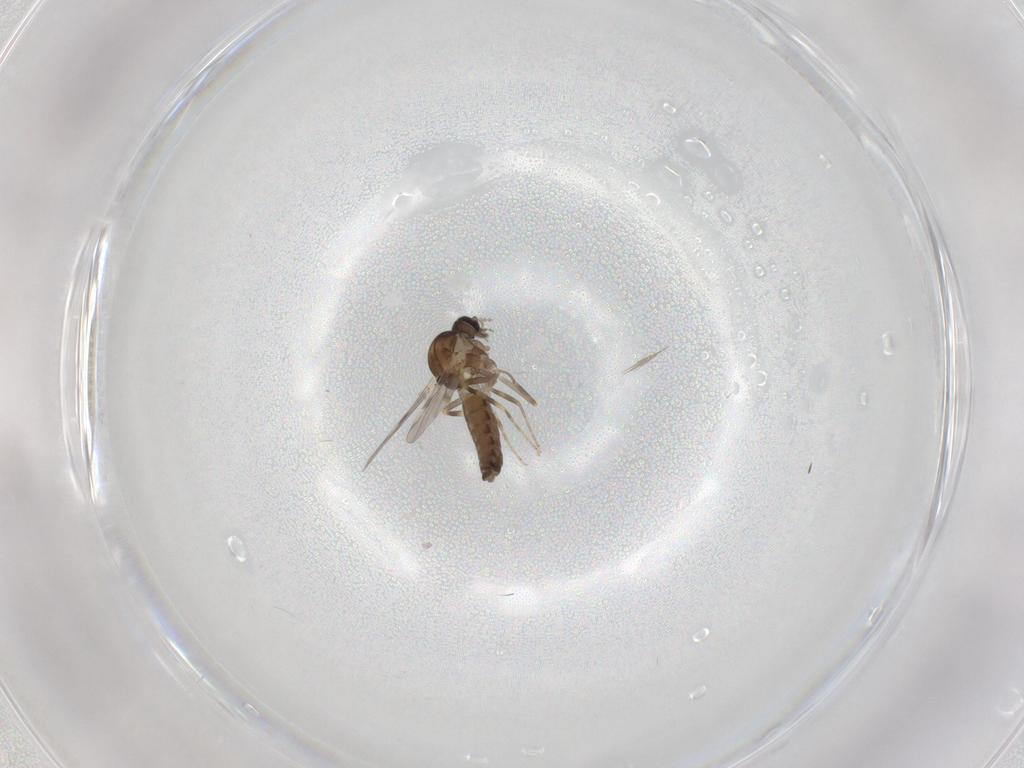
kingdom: Animalia
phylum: Arthropoda
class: Insecta
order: Diptera
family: Ceratopogonidae
